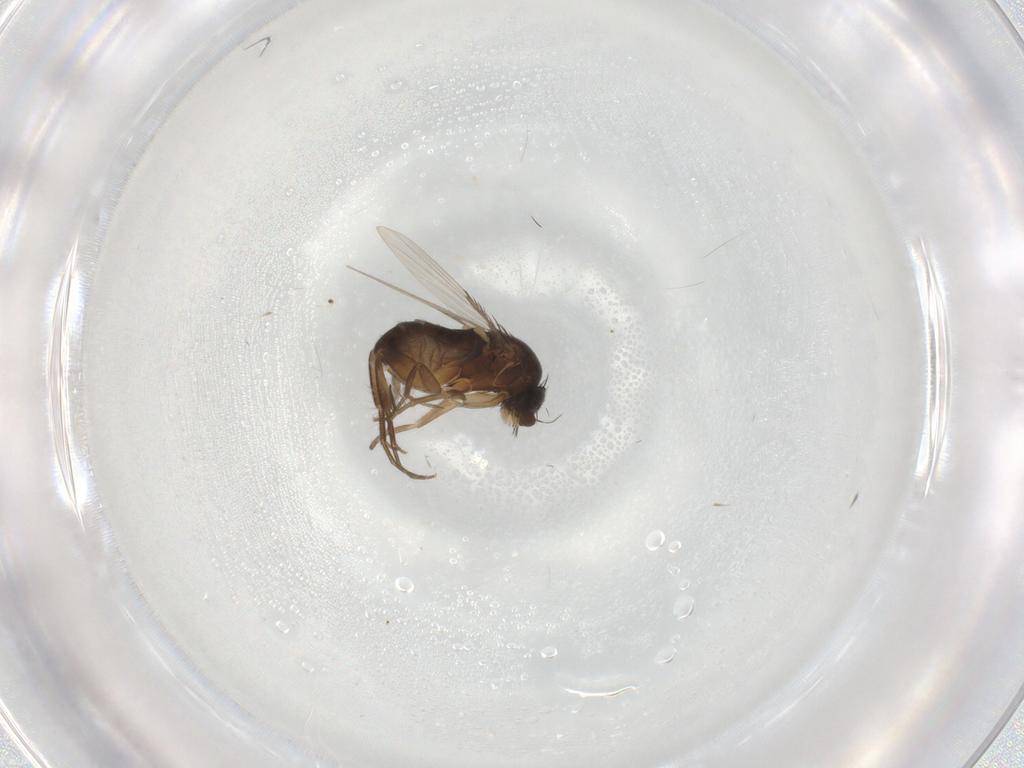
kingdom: Animalia
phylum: Arthropoda
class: Insecta
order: Diptera
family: Phoridae
